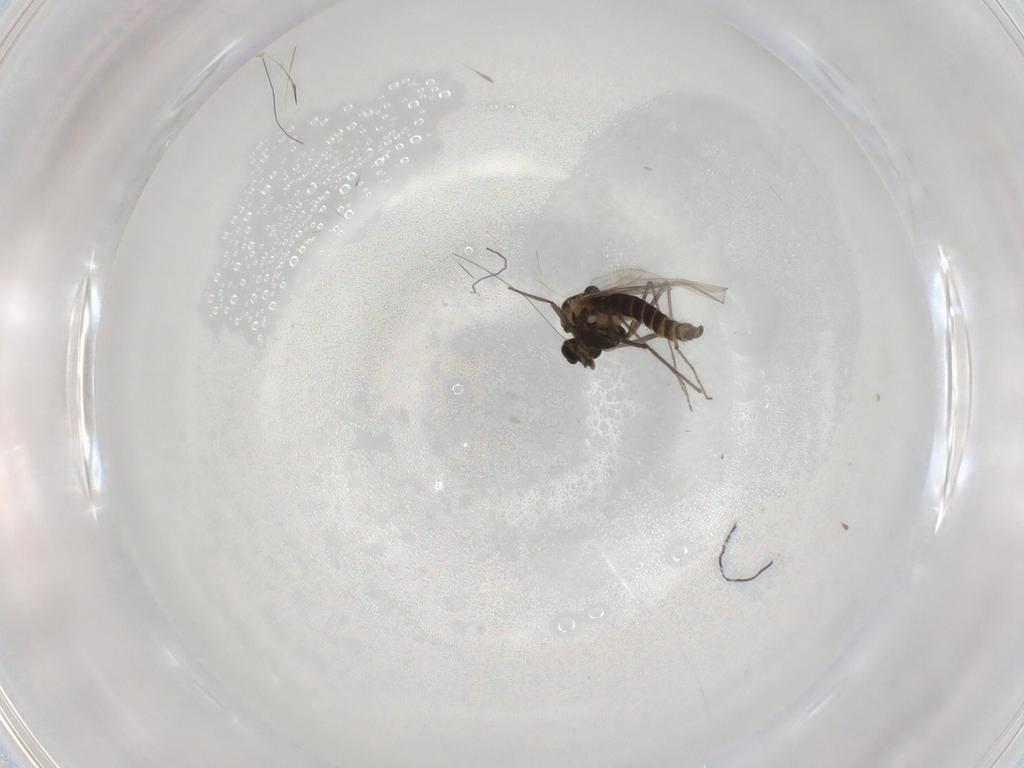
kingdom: Animalia
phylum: Arthropoda
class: Insecta
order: Diptera
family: Chironomidae
